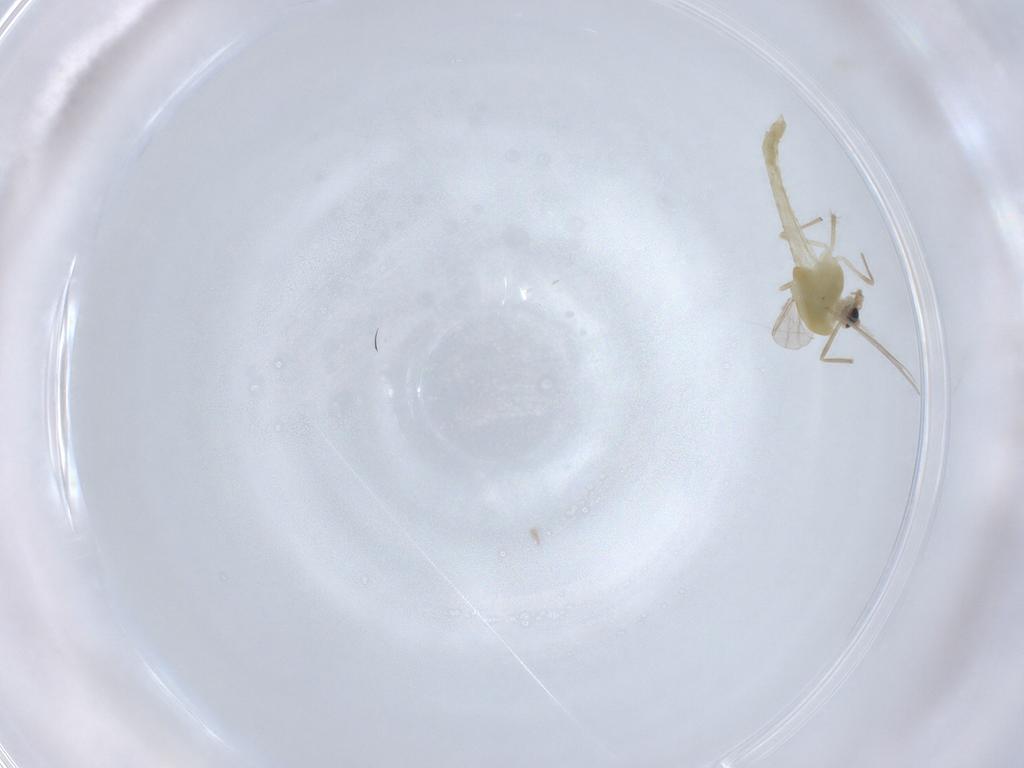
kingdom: Animalia
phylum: Arthropoda
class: Insecta
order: Diptera
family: Chironomidae
